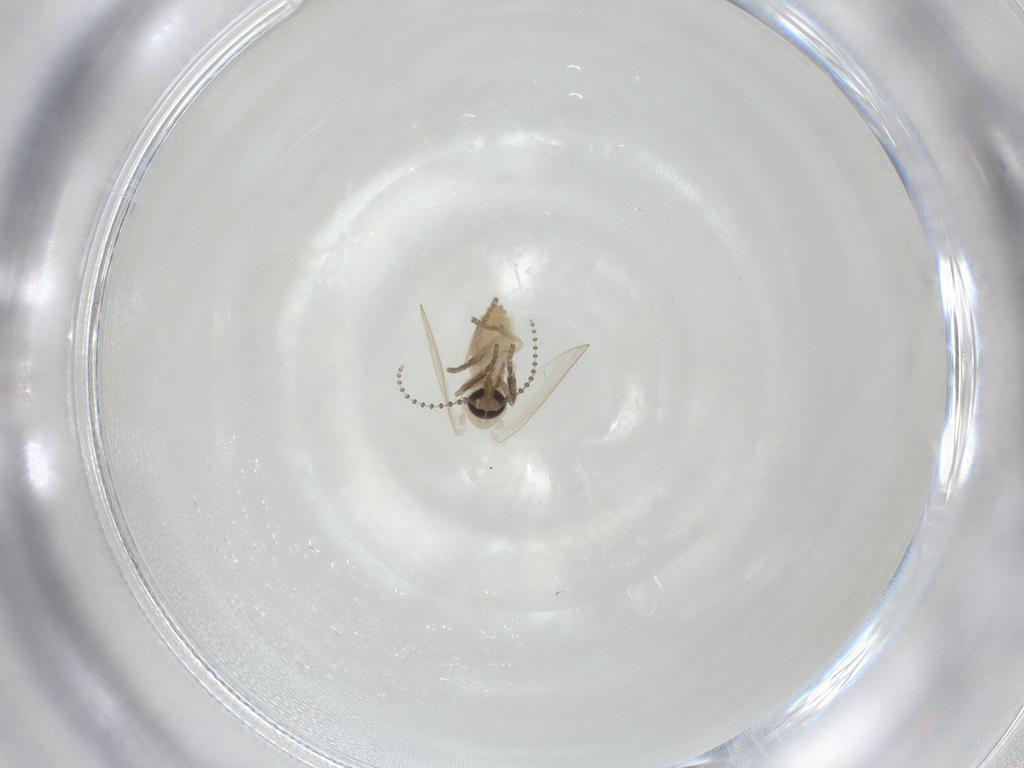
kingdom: Animalia
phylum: Arthropoda
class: Insecta
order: Diptera
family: Psychodidae
